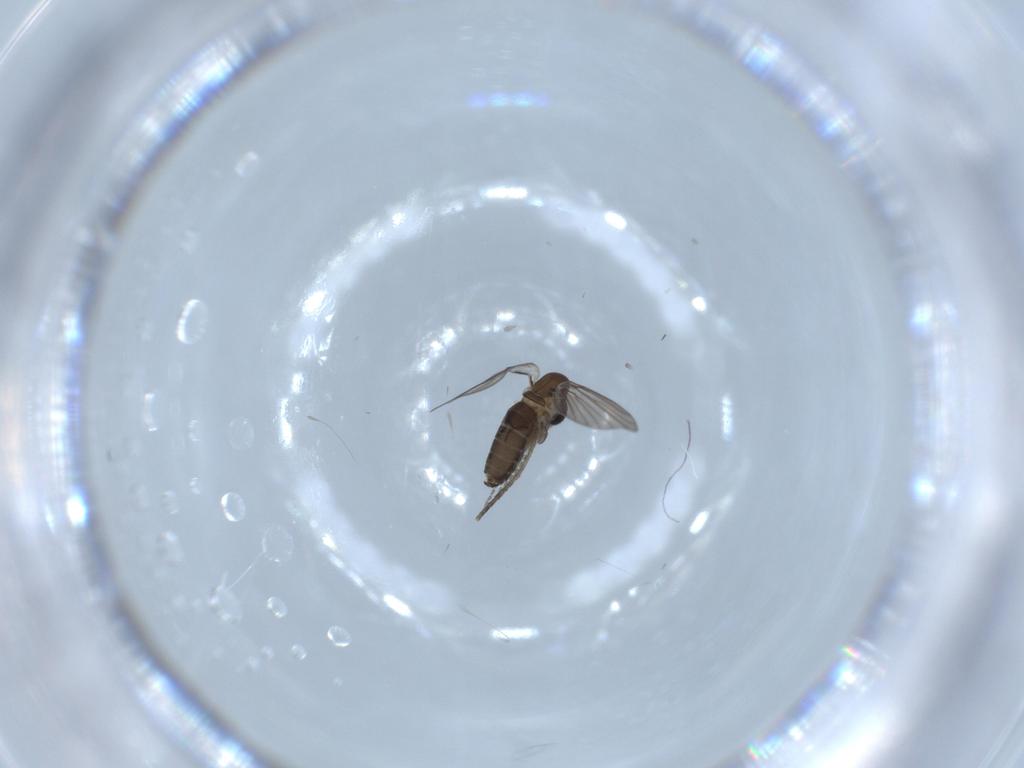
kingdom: Animalia
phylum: Arthropoda
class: Insecta
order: Diptera
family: Psychodidae
